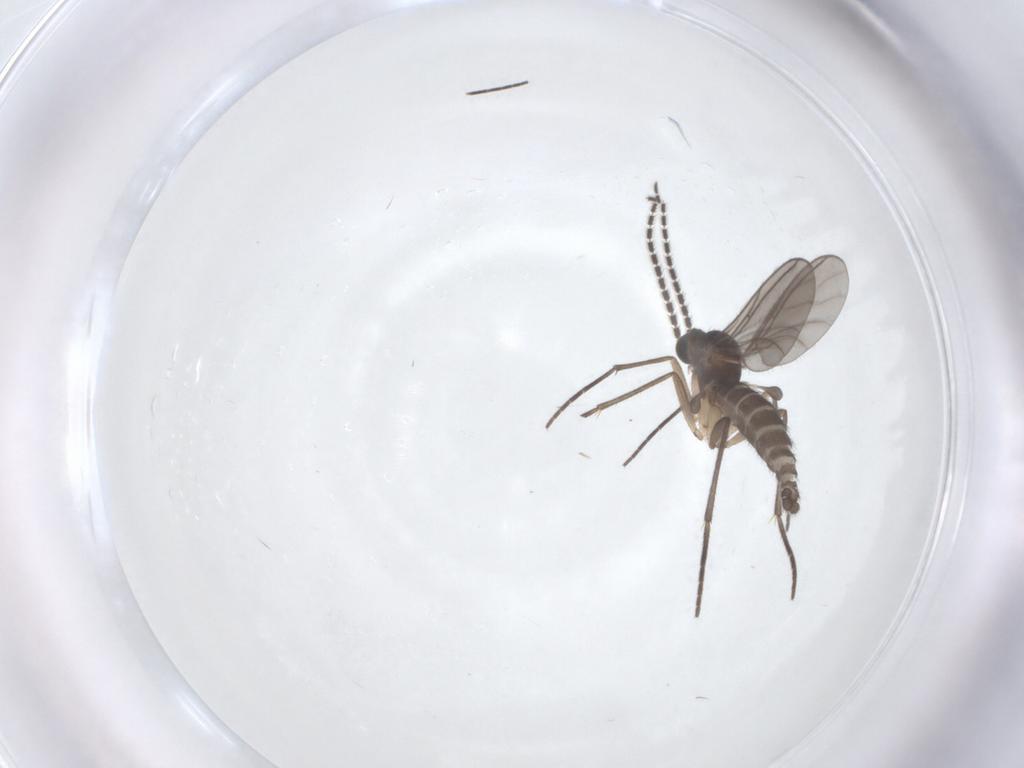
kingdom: Animalia
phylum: Arthropoda
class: Insecta
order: Diptera
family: Sciaridae
